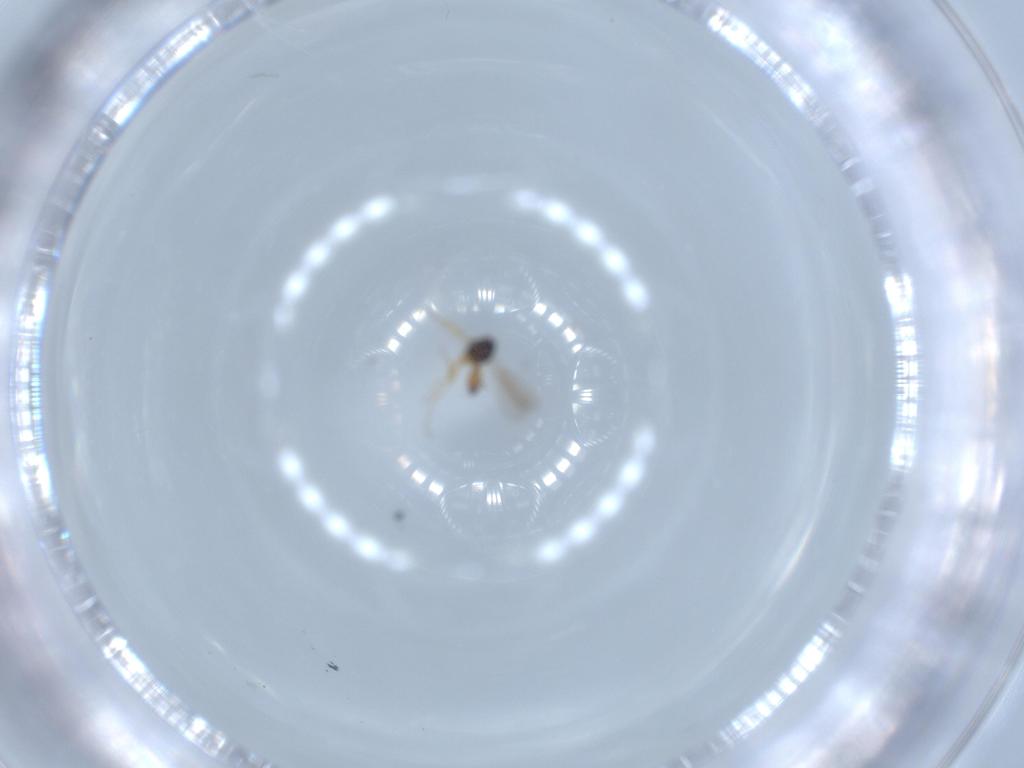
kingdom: Animalia
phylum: Arthropoda
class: Insecta
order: Hymenoptera
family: Scelionidae
